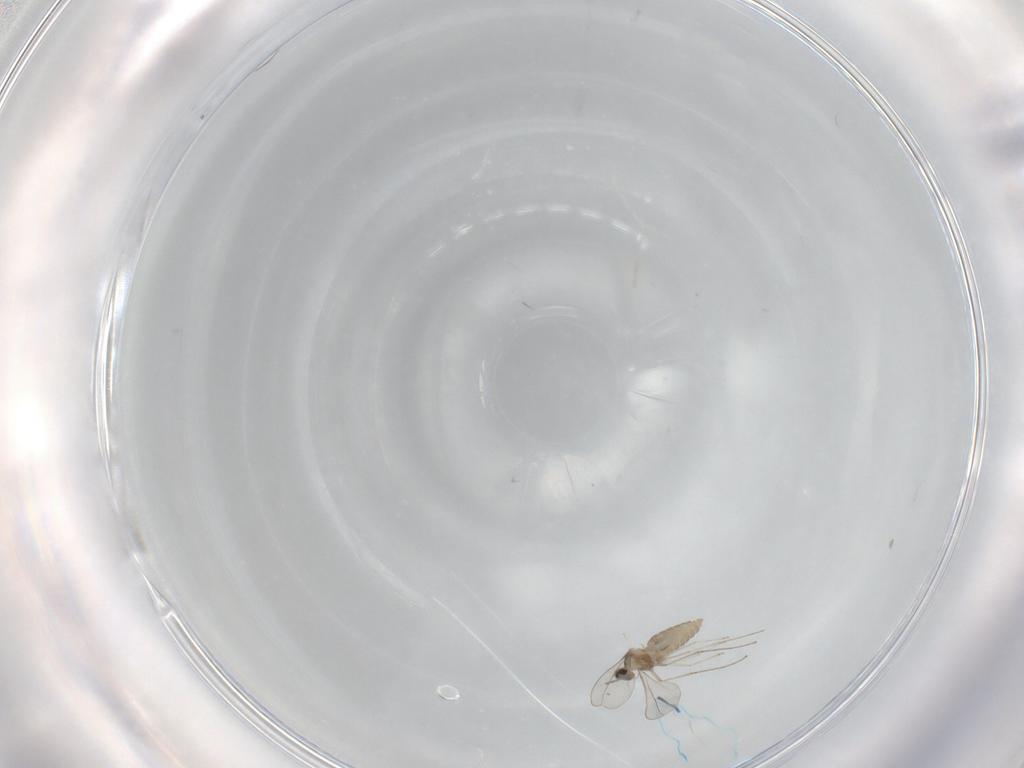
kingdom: Animalia
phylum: Arthropoda
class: Insecta
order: Diptera
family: Cecidomyiidae
